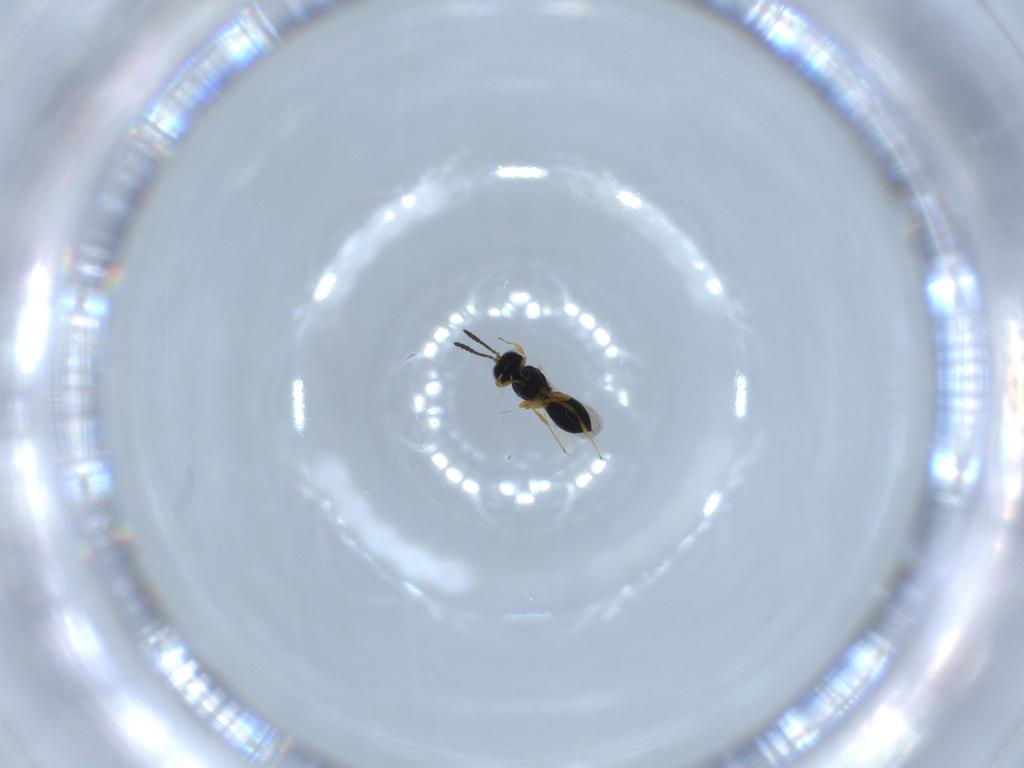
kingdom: Animalia
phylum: Arthropoda
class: Insecta
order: Hymenoptera
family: Scelionidae
